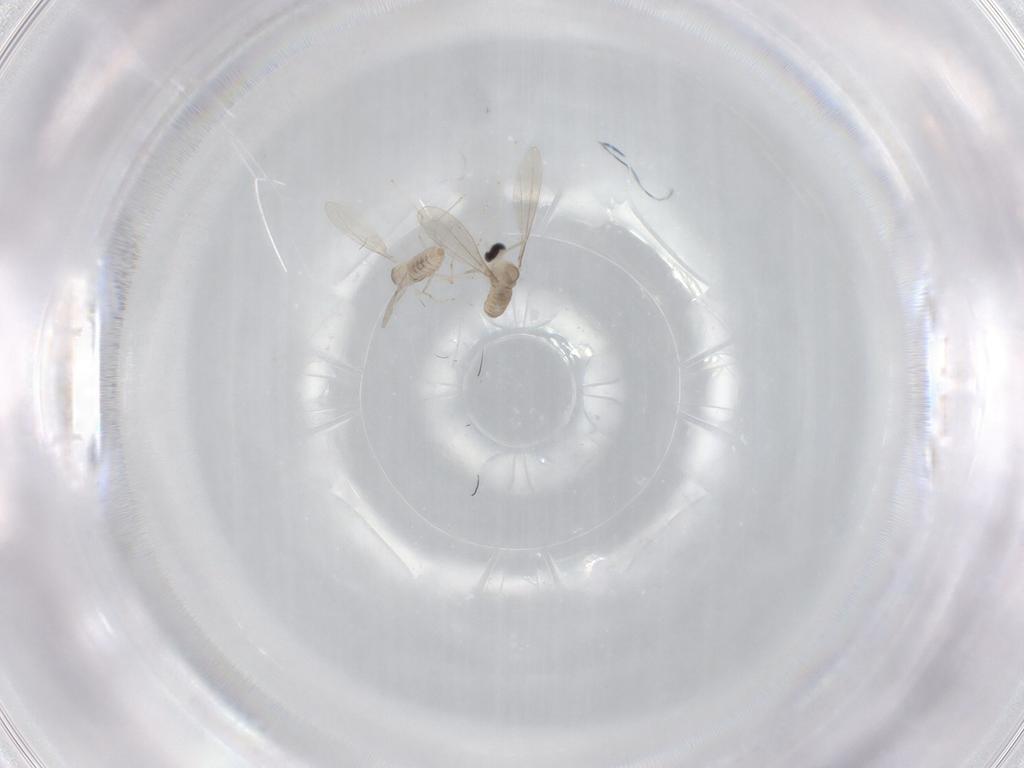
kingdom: Animalia
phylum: Arthropoda
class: Insecta
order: Diptera
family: Cecidomyiidae
